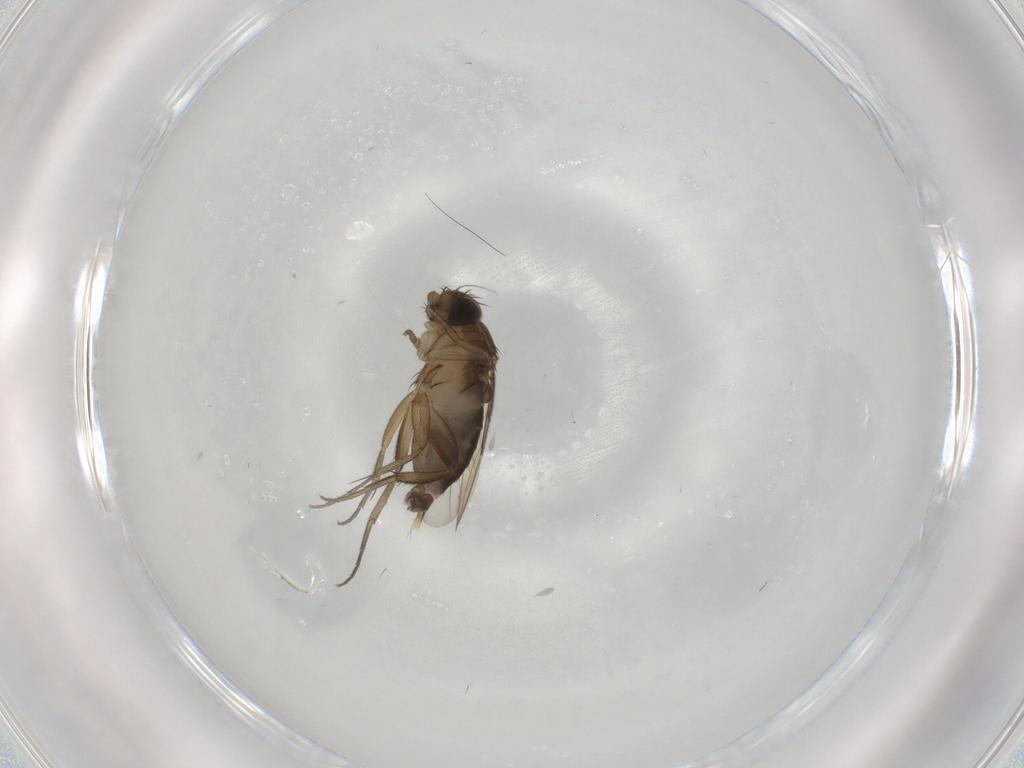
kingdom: Animalia
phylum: Arthropoda
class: Insecta
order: Diptera
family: Phoridae
